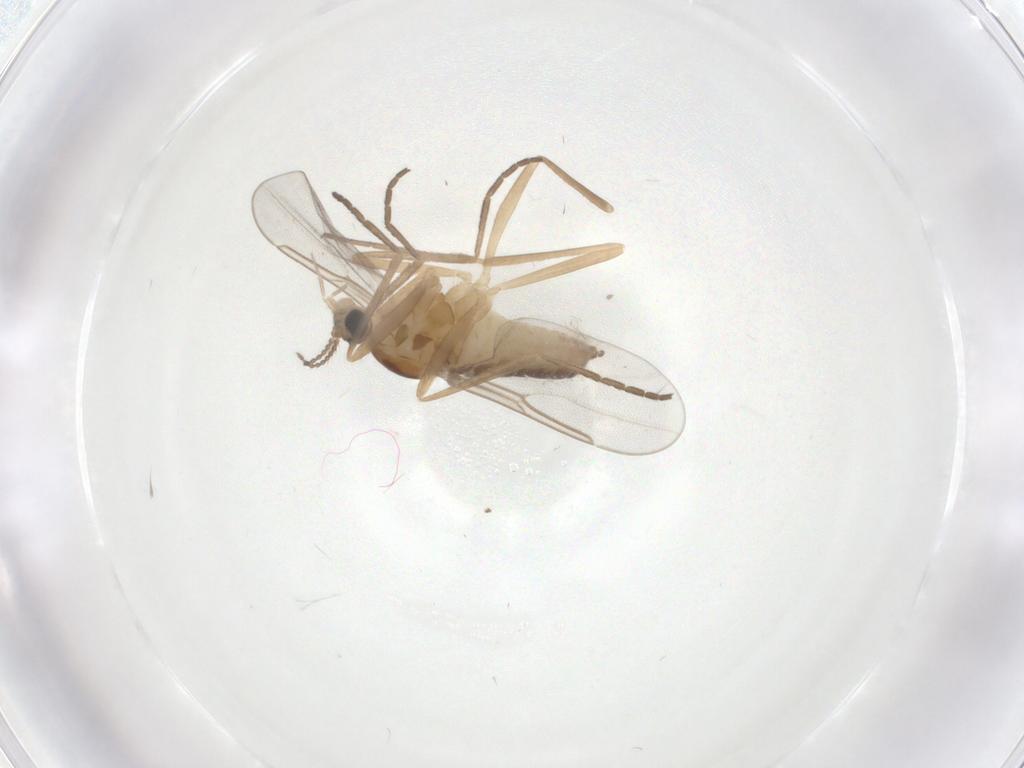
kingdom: Animalia
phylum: Arthropoda
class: Insecta
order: Diptera
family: Cecidomyiidae
